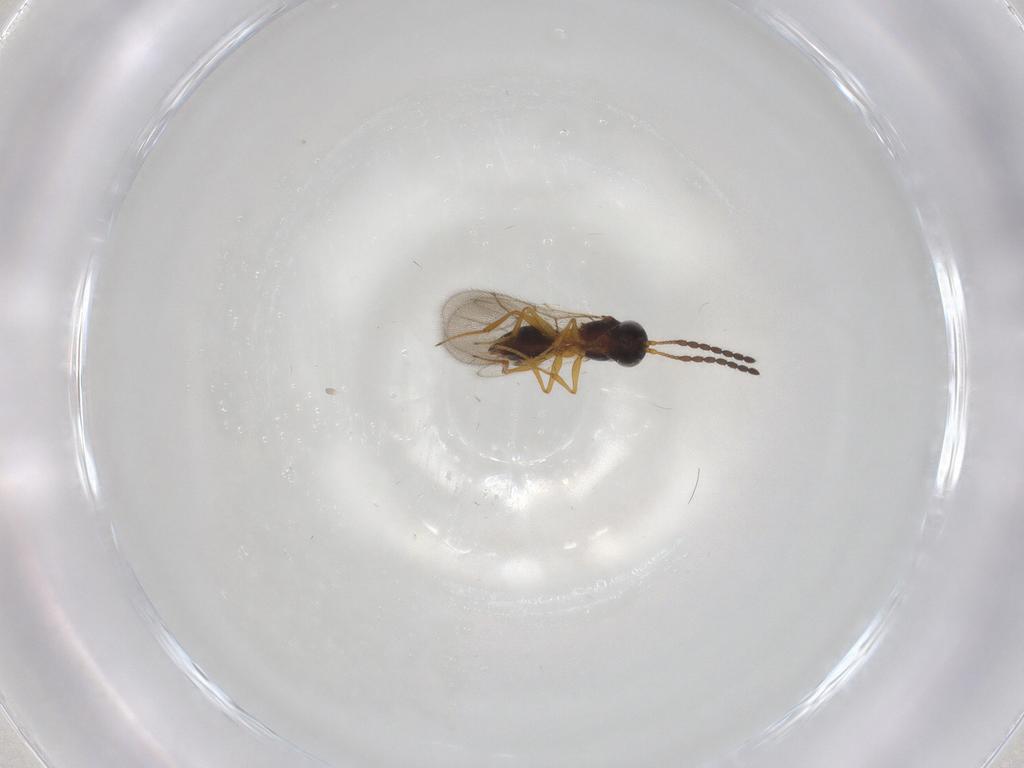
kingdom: Animalia
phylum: Arthropoda
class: Insecta
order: Hymenoptera
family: Figitidae
